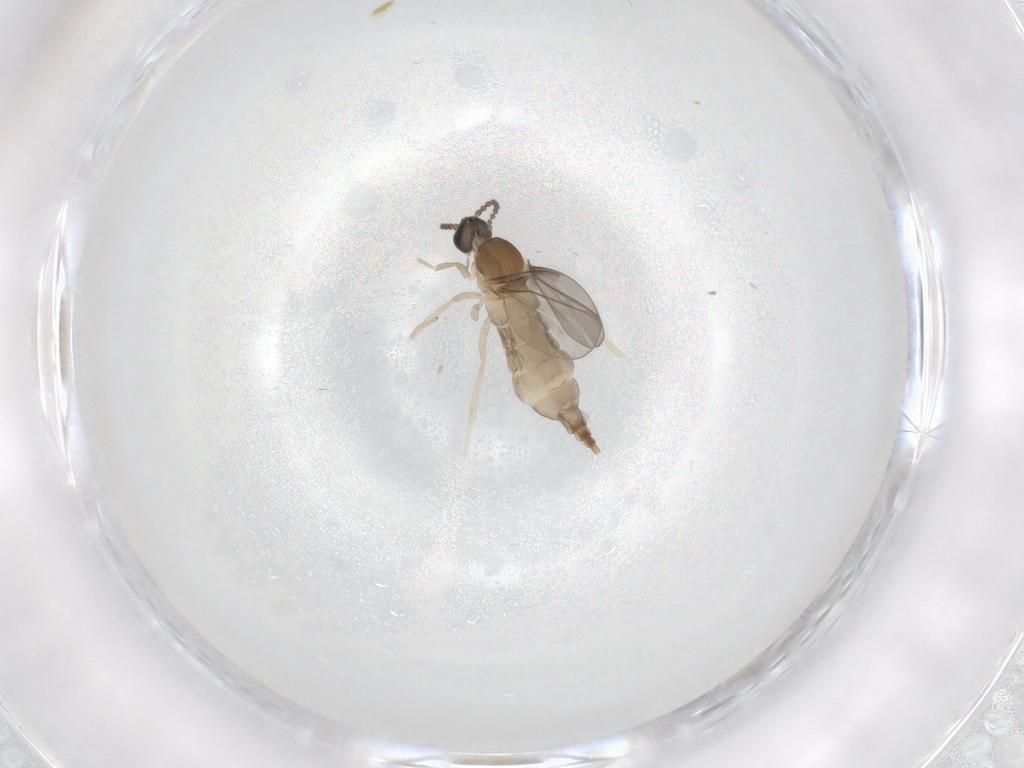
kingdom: Animalia
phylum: Arthropoda
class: Insecta
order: Diptera
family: Cecidomyiidae
